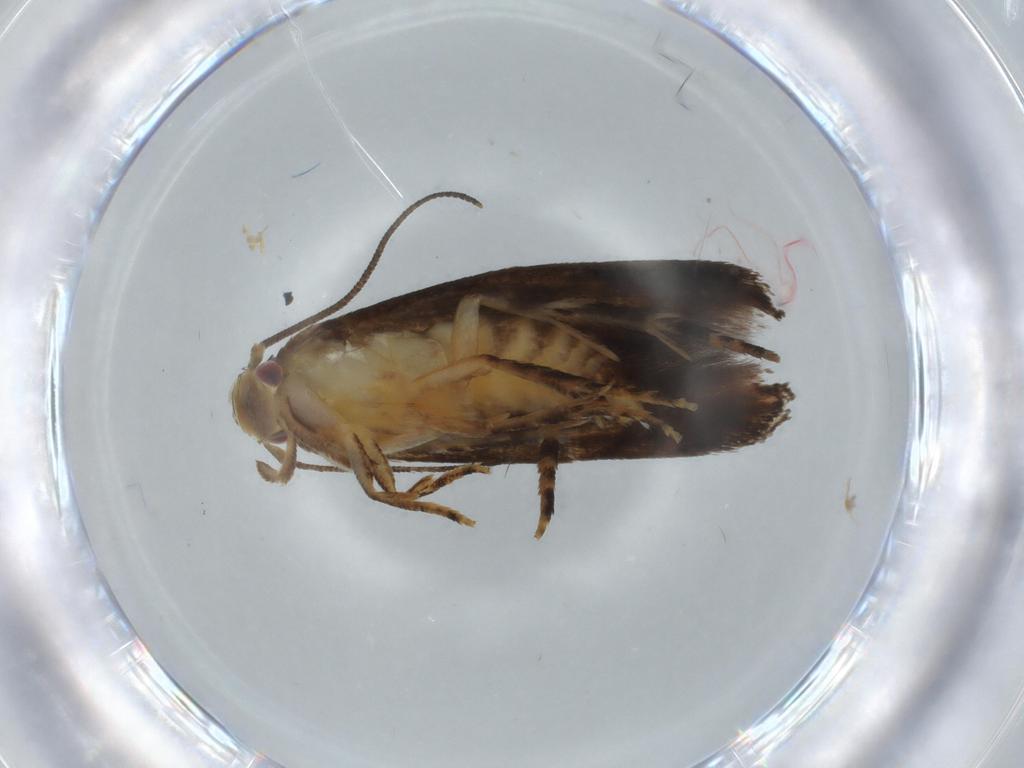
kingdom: Animalia
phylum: Arthropoda
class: Insecta
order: Lepidoptera
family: Momphidae
